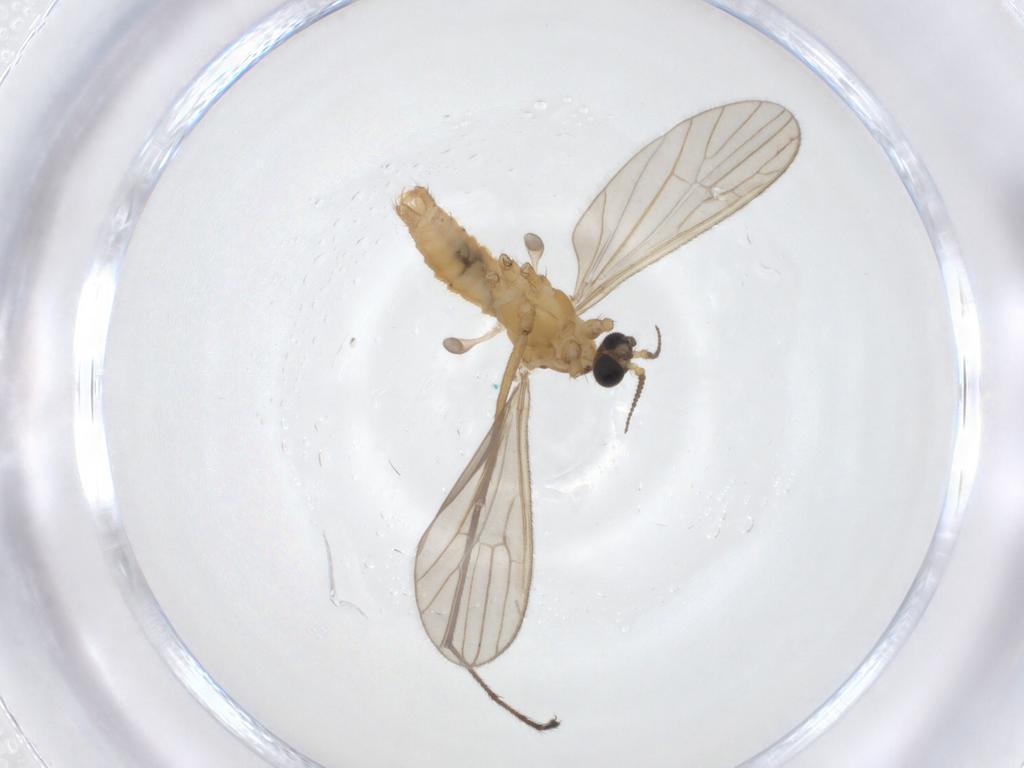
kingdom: Animalia
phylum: Arthropoda
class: Insecta
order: Diptera
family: Limoniidae
